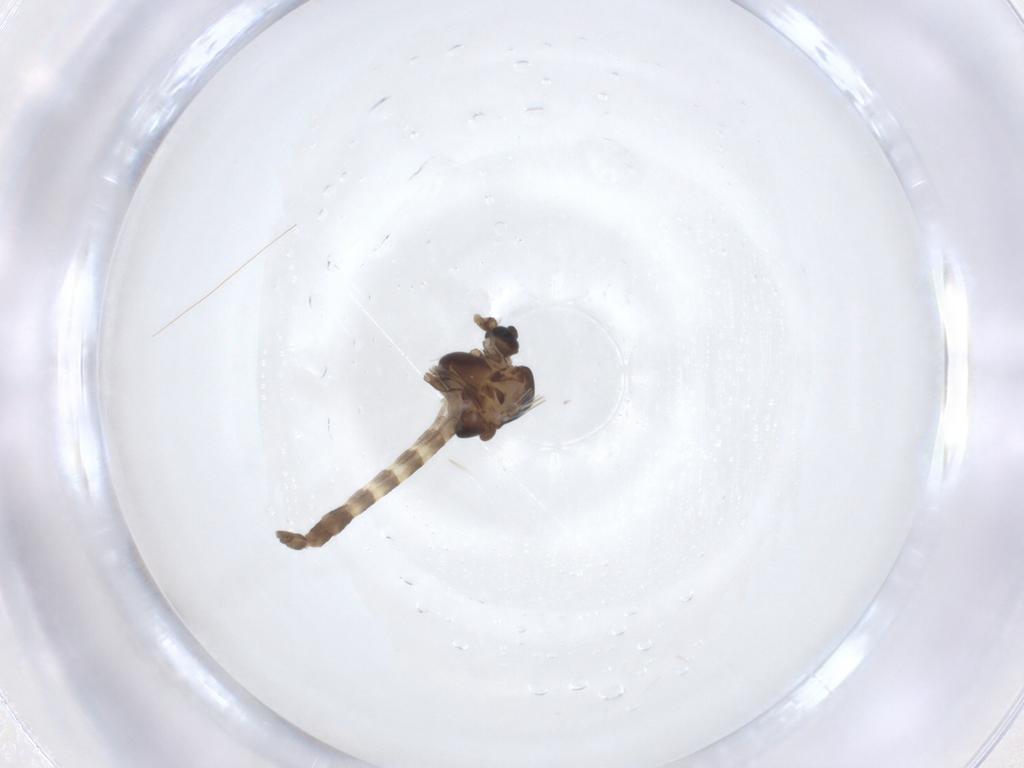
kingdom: Animalia
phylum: Arthropoda
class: Insecta
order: Diptera
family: Chironomidae
